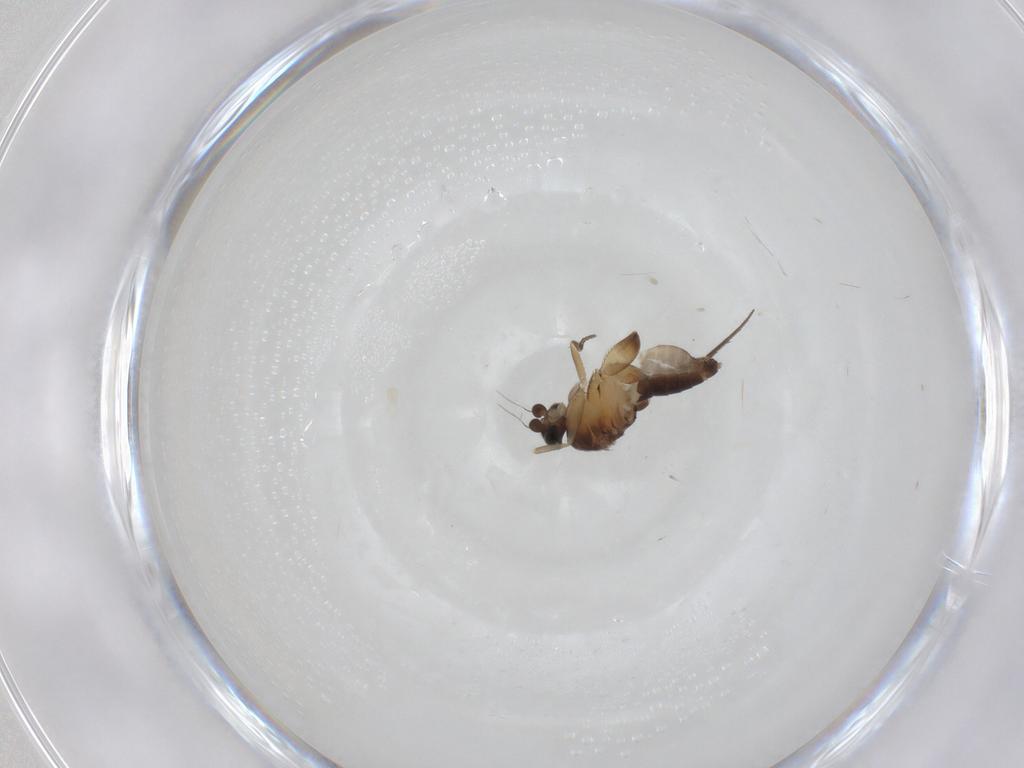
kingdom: Animalia
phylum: Arthropoda
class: Insecta
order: Diptera
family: Phoridae
